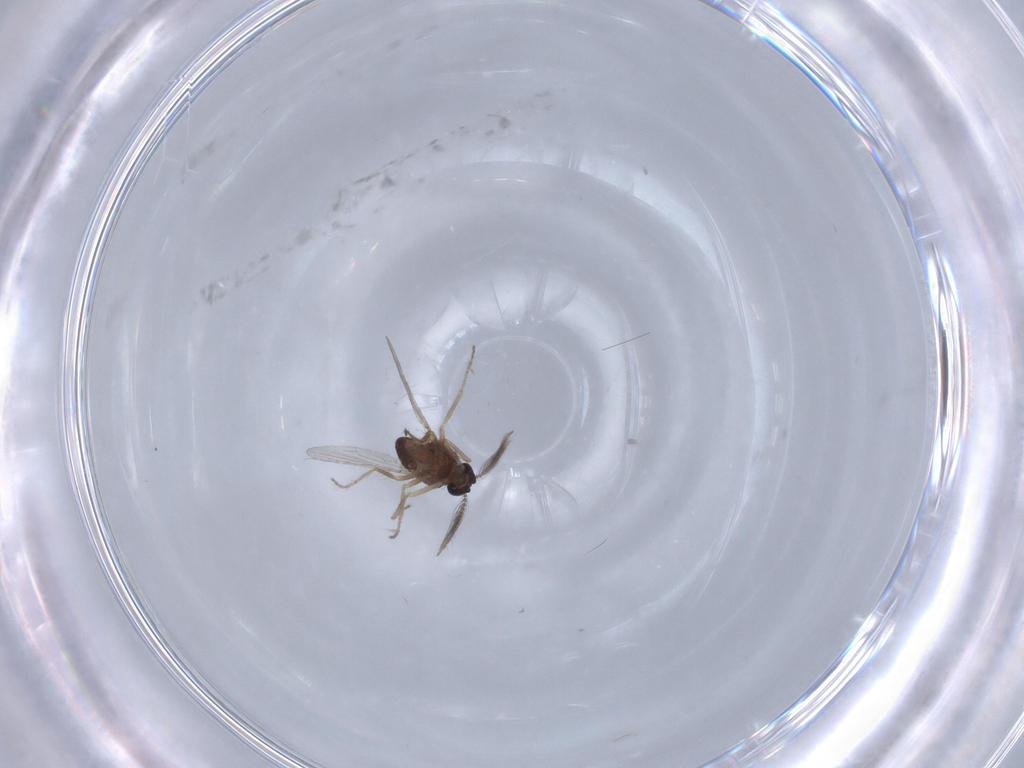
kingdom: Animalia
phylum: Arthropoda
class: Insecta
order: Diptera
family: Ceratopogonidae
